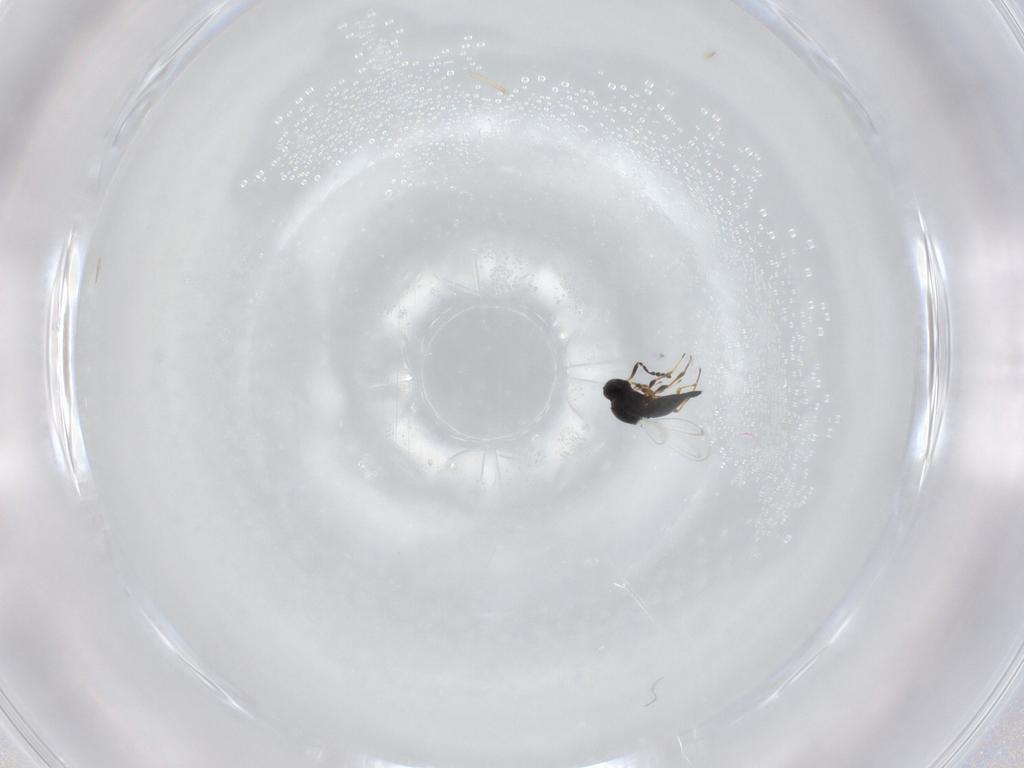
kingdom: Animalia
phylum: Arthropoda
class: Insecta
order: Hymenoptera
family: Platygastridae
